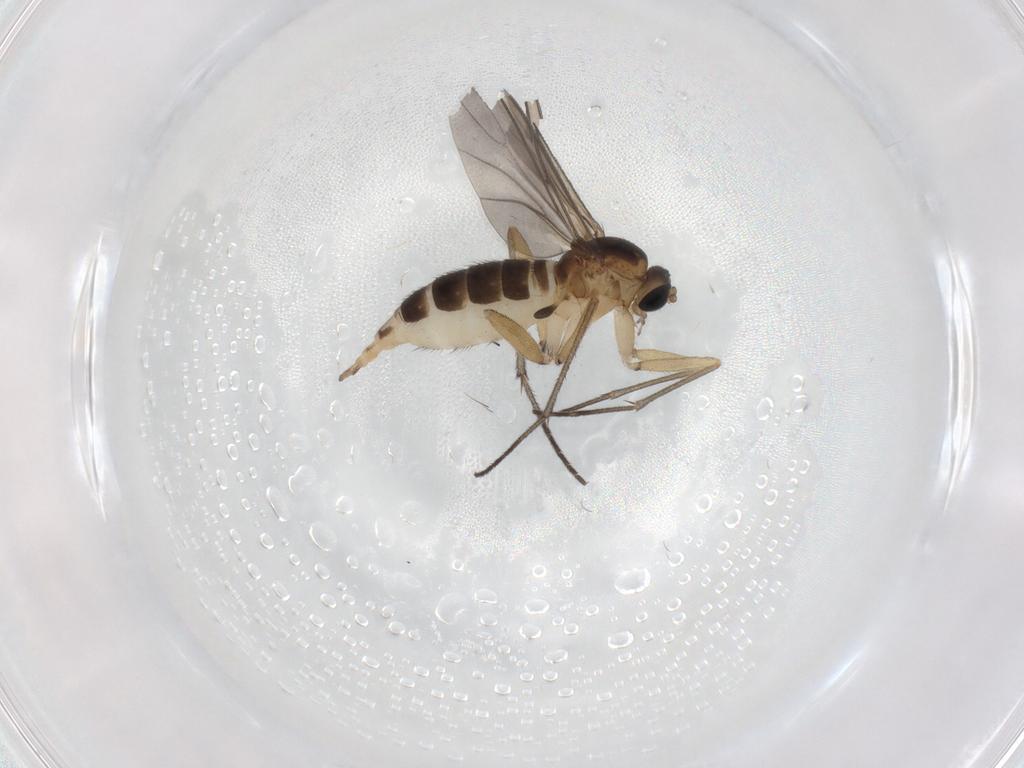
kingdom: Animalia
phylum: Arthropoda
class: Insecta
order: Diptera
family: Sciaridae
